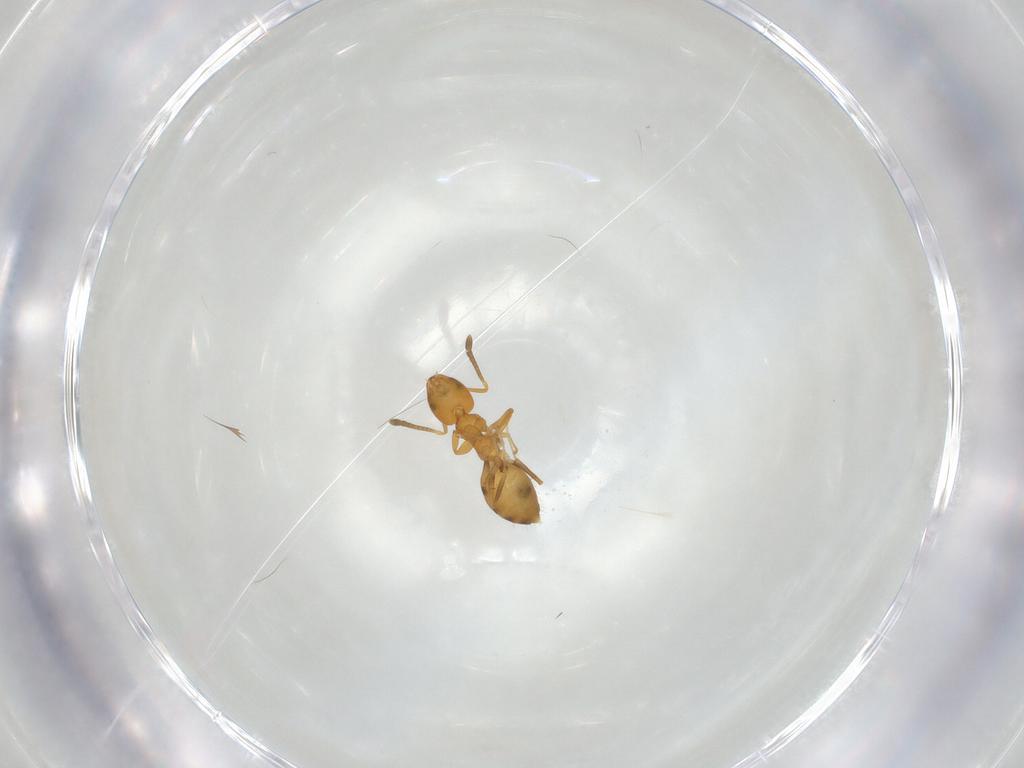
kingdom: Animalia
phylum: Arthropoda
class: Insecta
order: Hymenoptera
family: Formicidae
